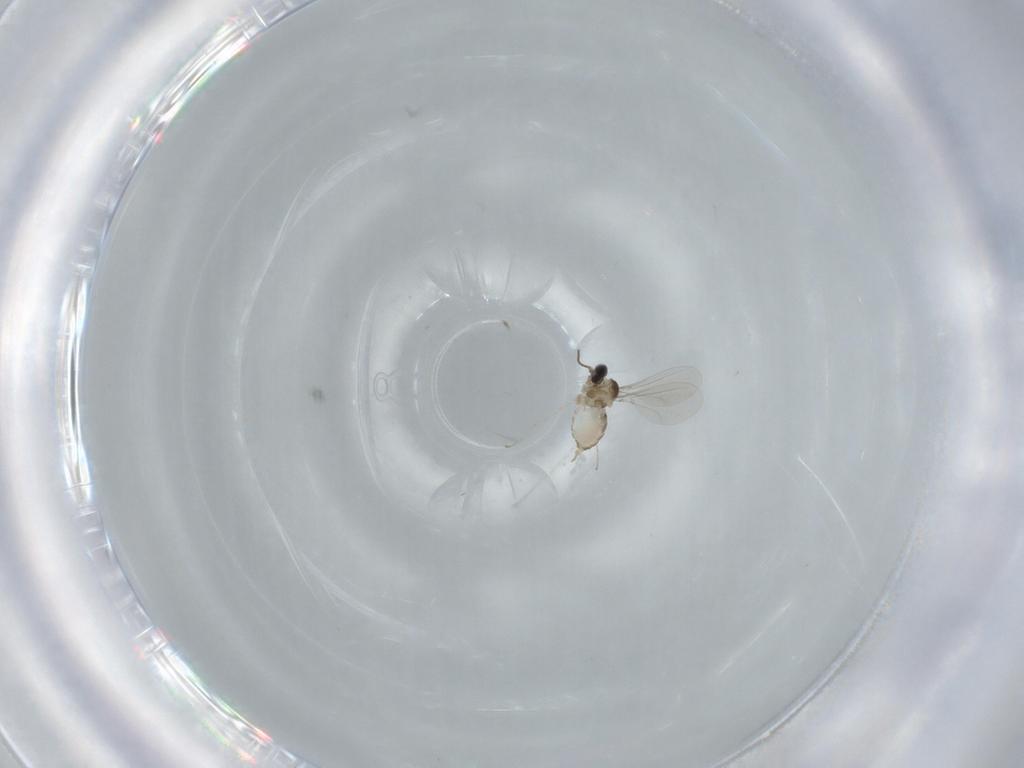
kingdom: Animalia
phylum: Arthropoda
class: Insecta
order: Diptera
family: Cecidomyiidae
